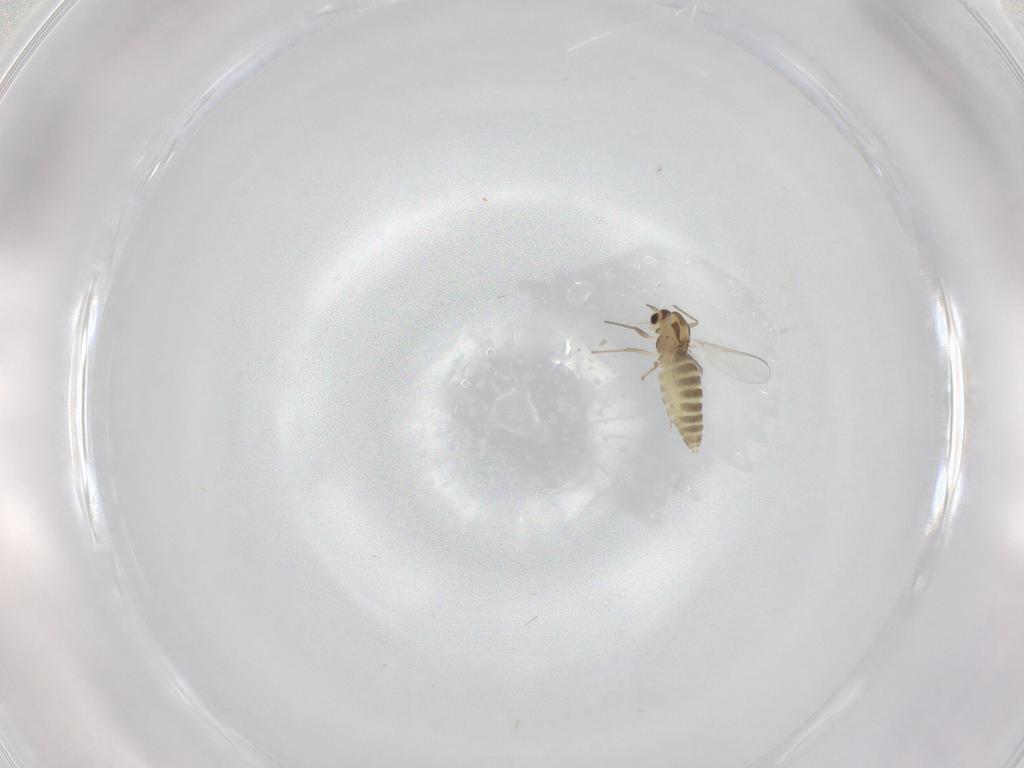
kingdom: Animalia
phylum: Arthropoda
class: Insecta
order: Diptera
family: Chironomidae
